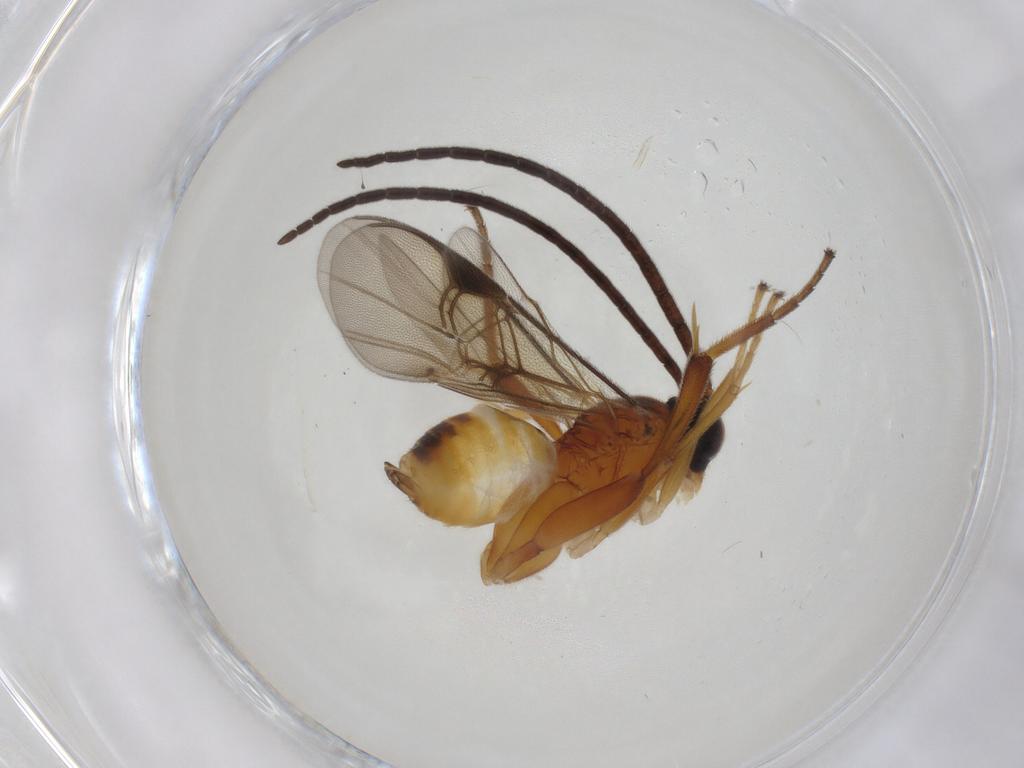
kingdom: Animalia
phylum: Arthropoda
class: Insecta
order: Hymenoptera
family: Braconidae
